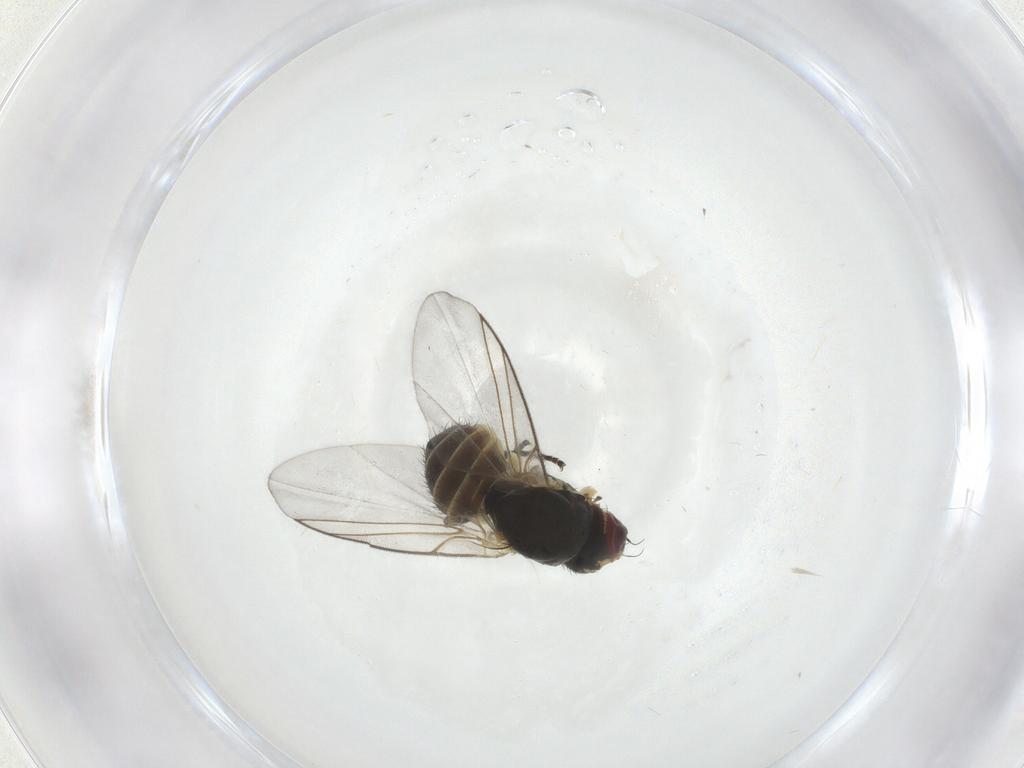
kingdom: Animalia
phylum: Arthropoda
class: Insecta
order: Diptera
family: Agromyzidae
